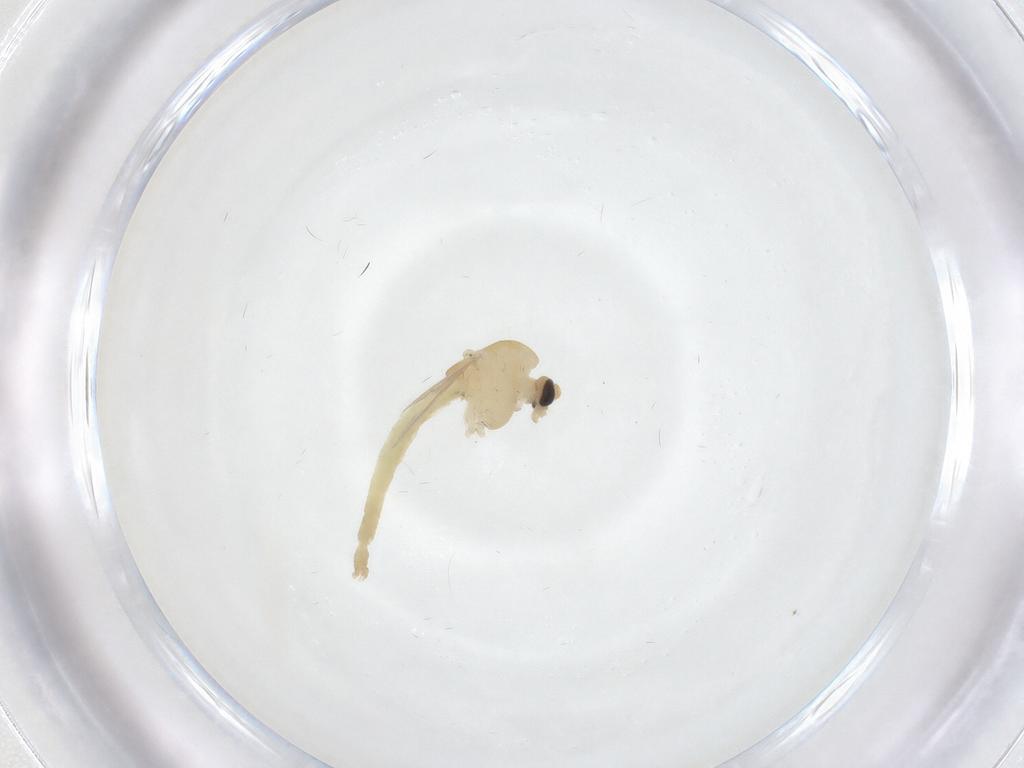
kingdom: Animalia
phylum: Arthropoda
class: Insecta
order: Diptera
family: Chironomidae
